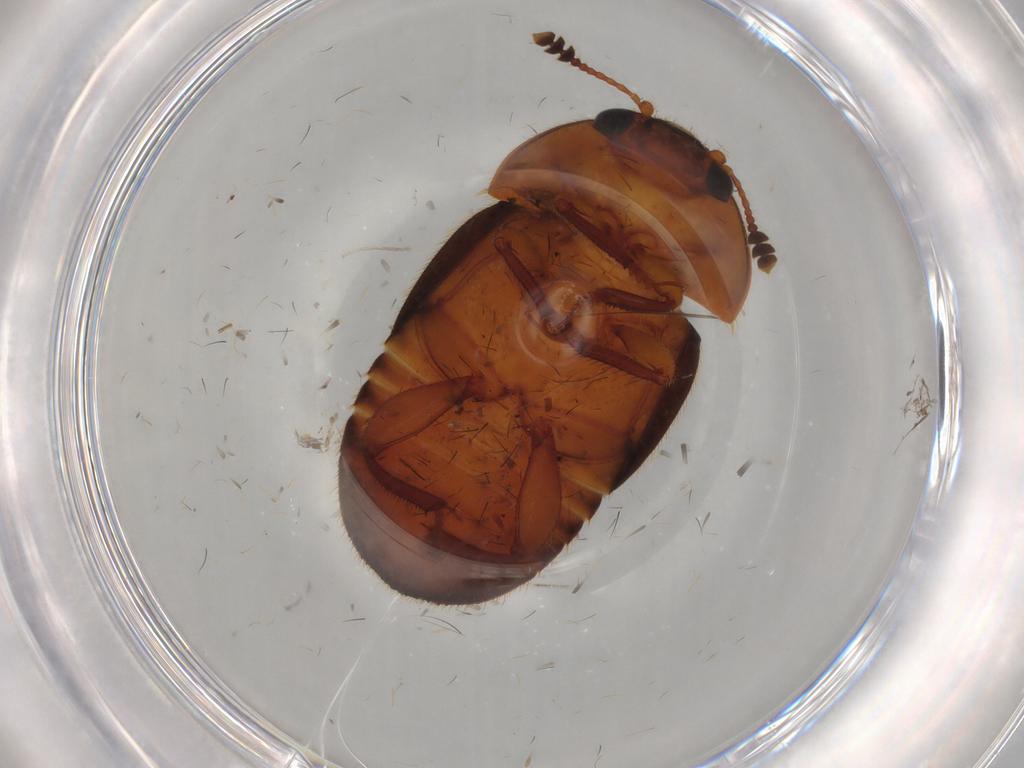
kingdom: Animalia
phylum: Arthropoda
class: Insecta
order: Coleoptera
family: Nitidulidae
